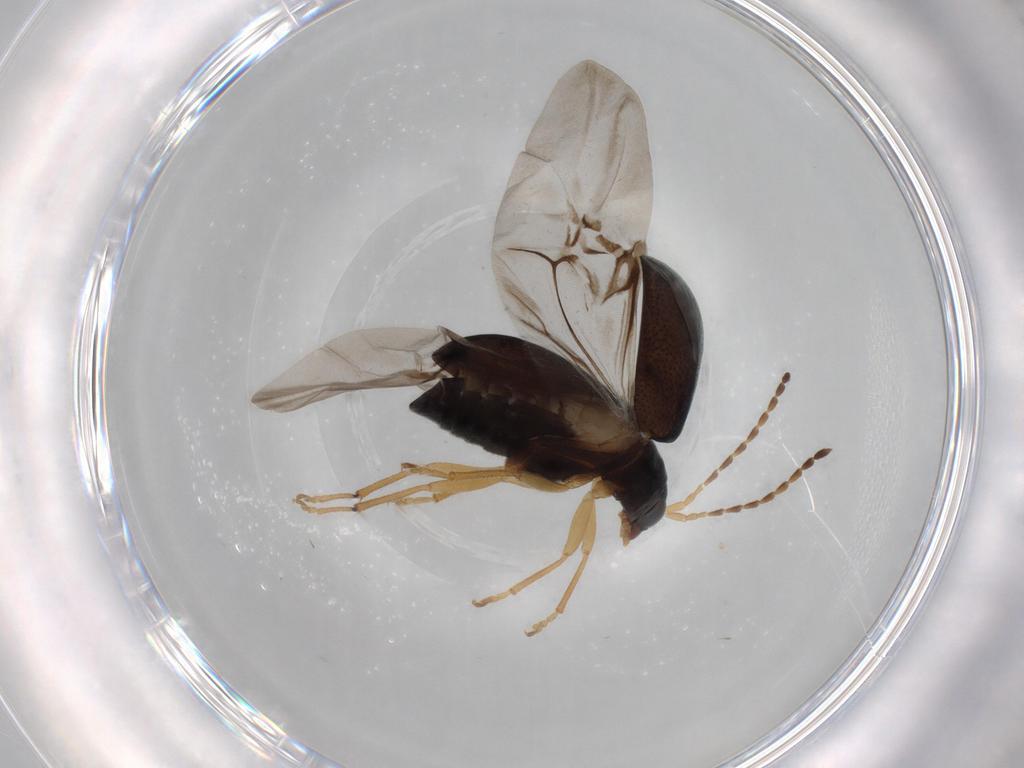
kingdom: Animalia
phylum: Arthropoda
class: Insecta
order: Coleoptera
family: Chrysomelidae
